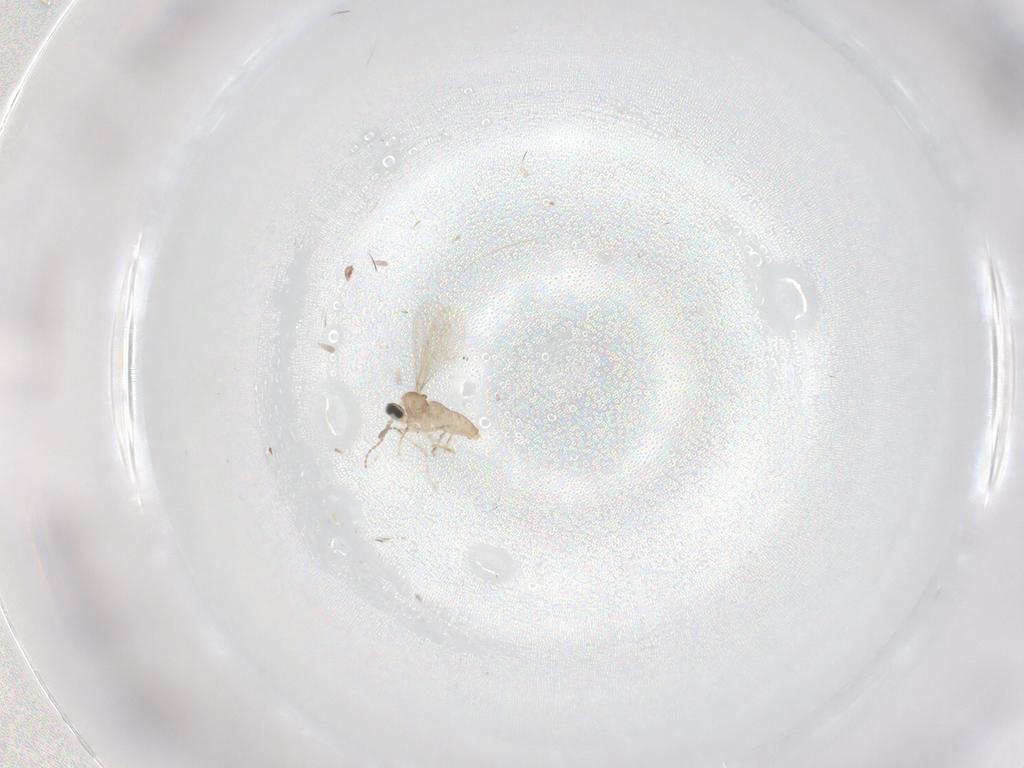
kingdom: Animalia
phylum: Arthropoda
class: Insecta
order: Diptera
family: Cecidomyiidae
